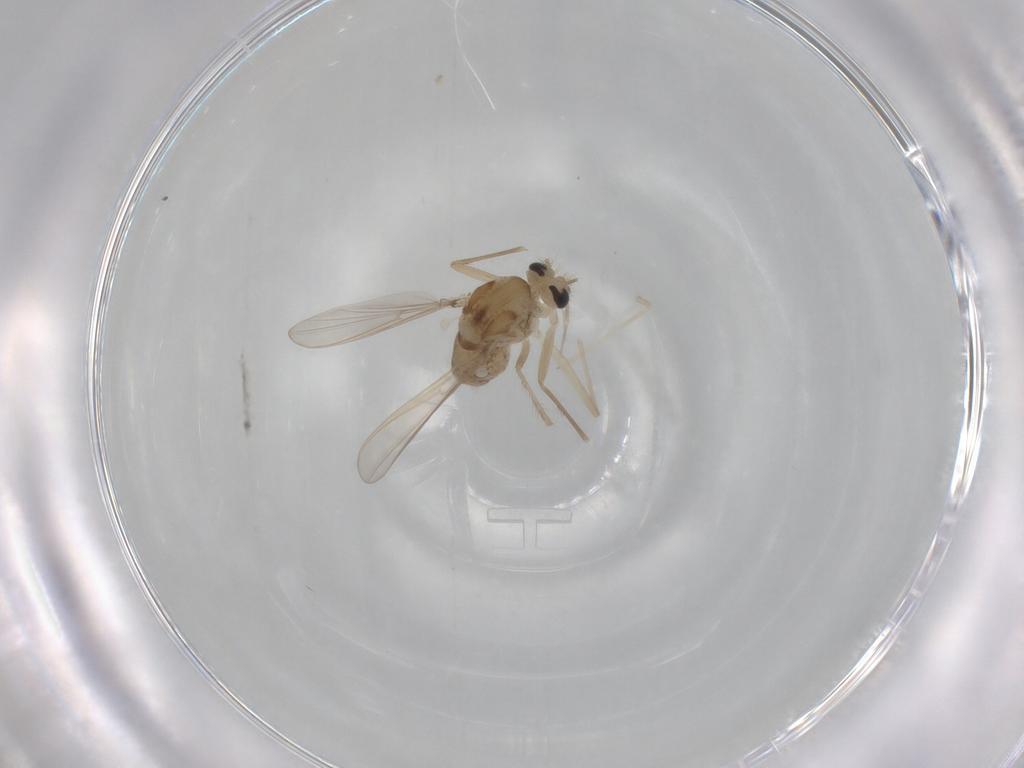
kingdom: Animalia
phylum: Arthropoda
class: Insecta
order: Diptera
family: Chironomidae
